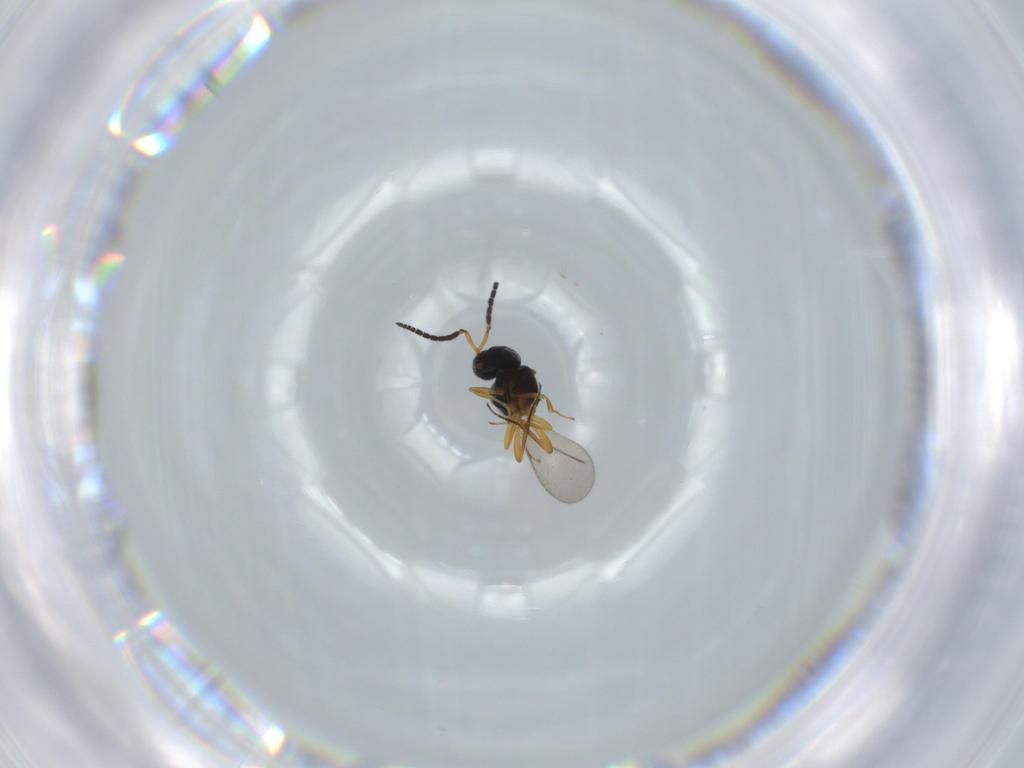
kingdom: Animalia
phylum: Arthropoda
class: Insecta
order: Coleoptera
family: Curculionidae
